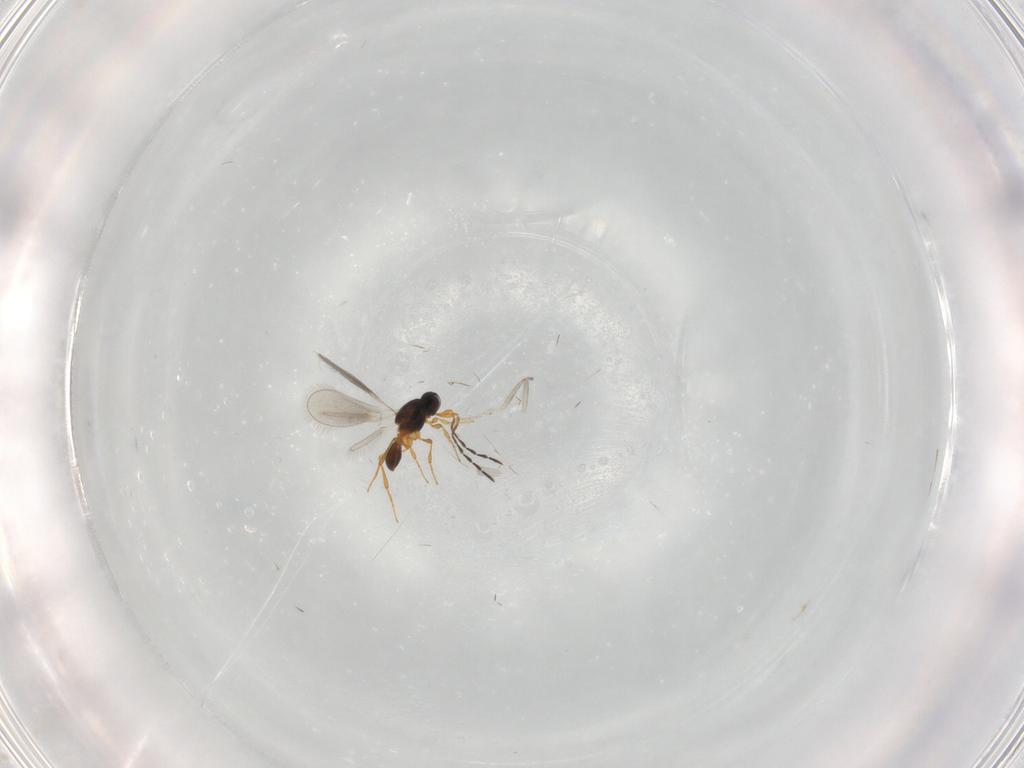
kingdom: Animalia
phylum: Arthropoda
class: Insecta
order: Hymenoptera
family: Platygastridae
